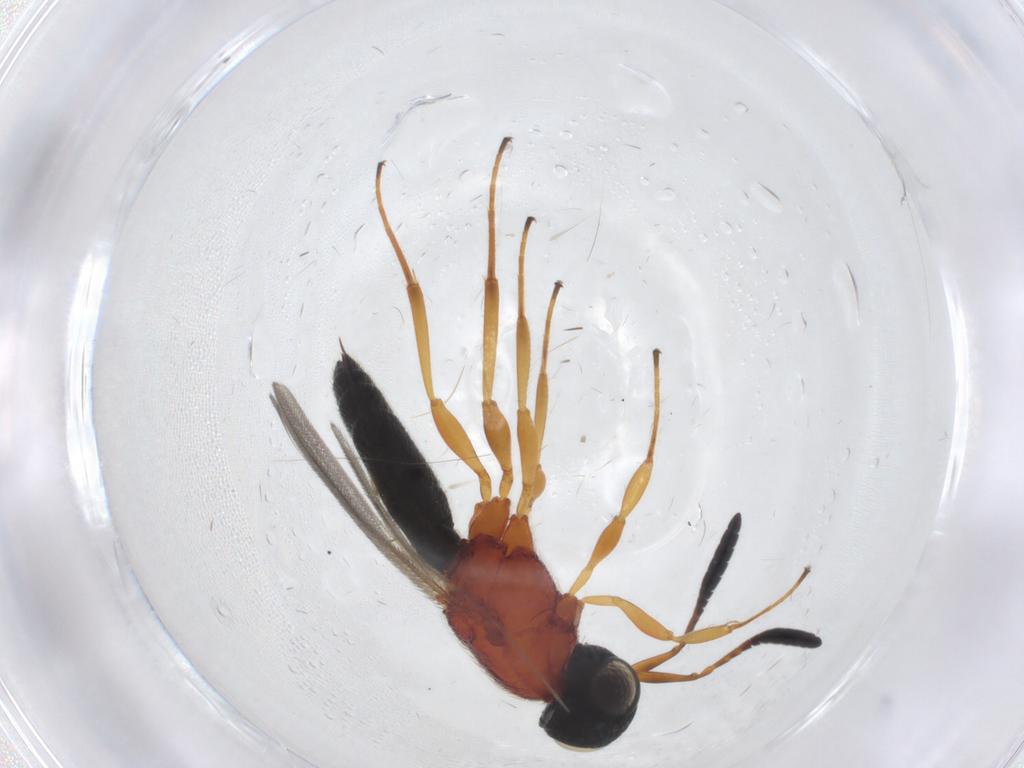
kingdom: Animalia
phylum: Arthropoda
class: Insecta
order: Hymenoptera
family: Scelionidae
